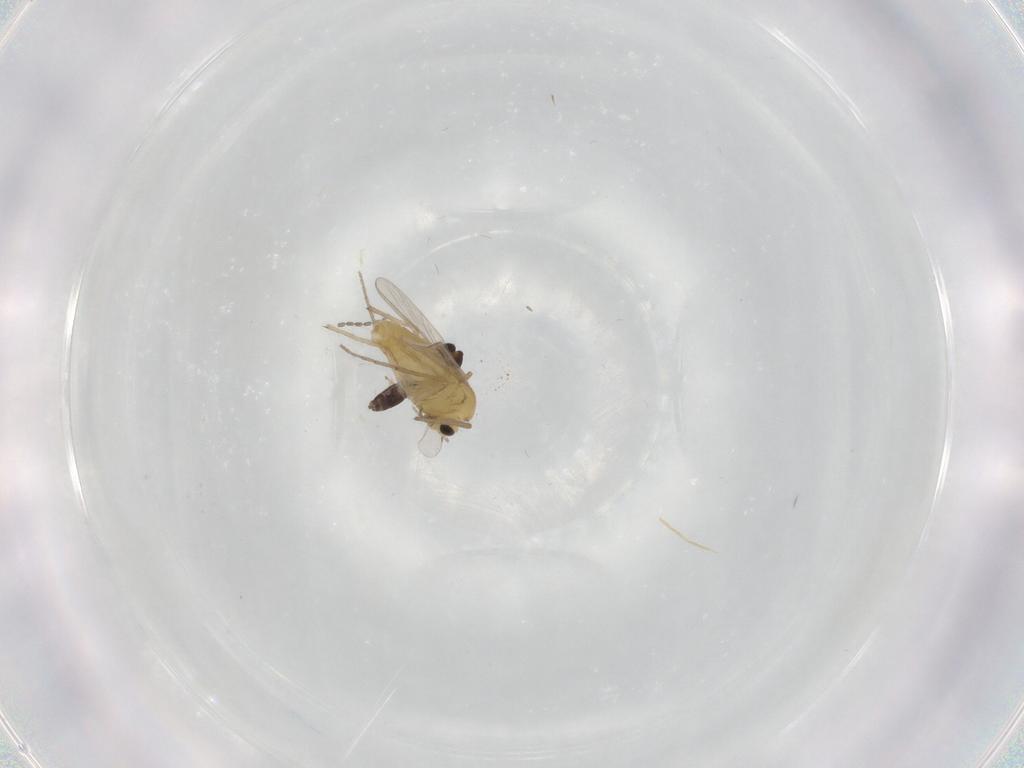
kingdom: Animalia
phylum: Arthropoda
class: Insecta
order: Diptera
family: Chironomidae
